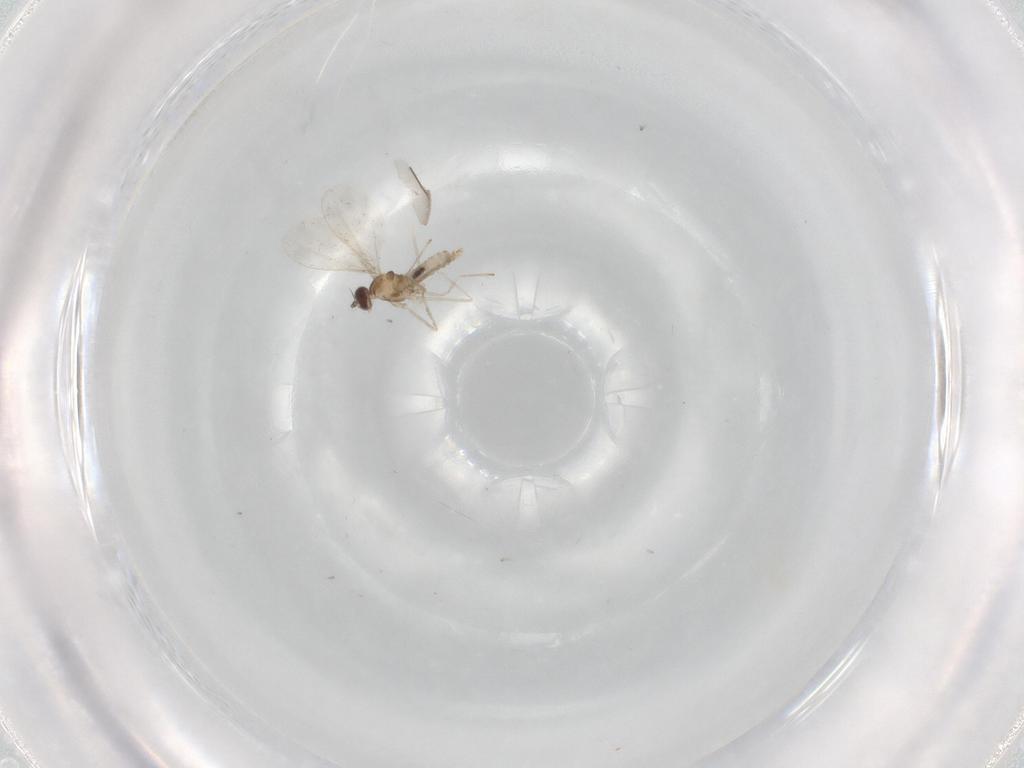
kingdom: Animalia
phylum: Arthropoda
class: Insecta
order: Diptera
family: Cecidomyiidae
